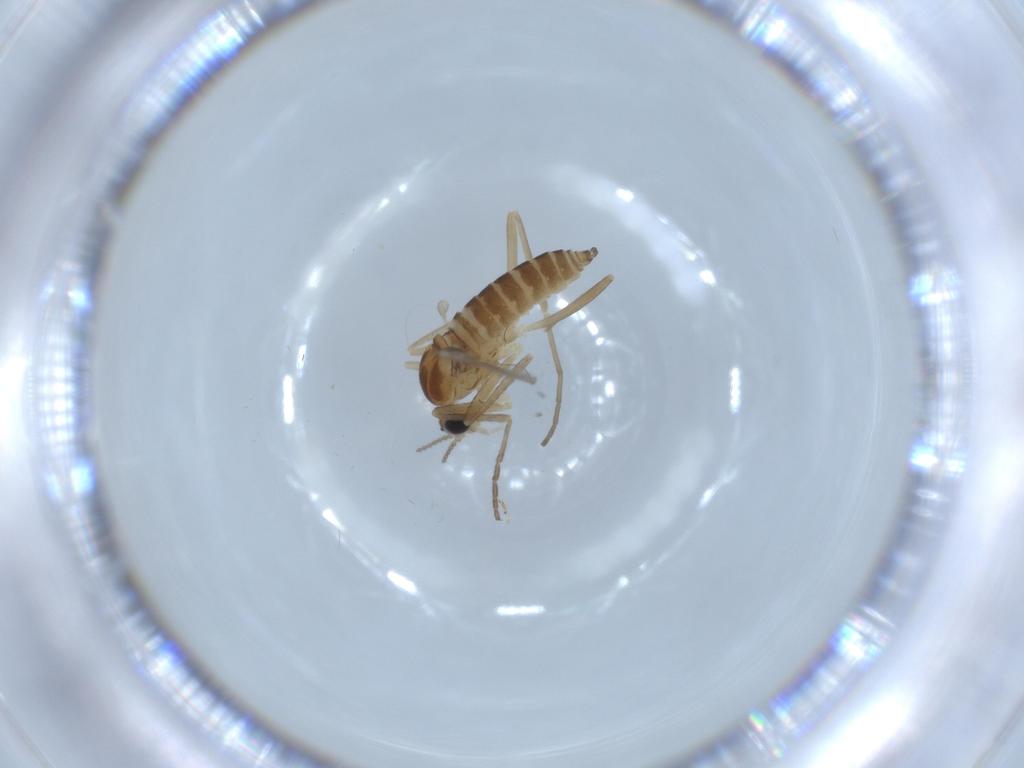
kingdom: Animalia
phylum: Arthropoda
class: Insecta
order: Diptera
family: Cecidomyiidae
